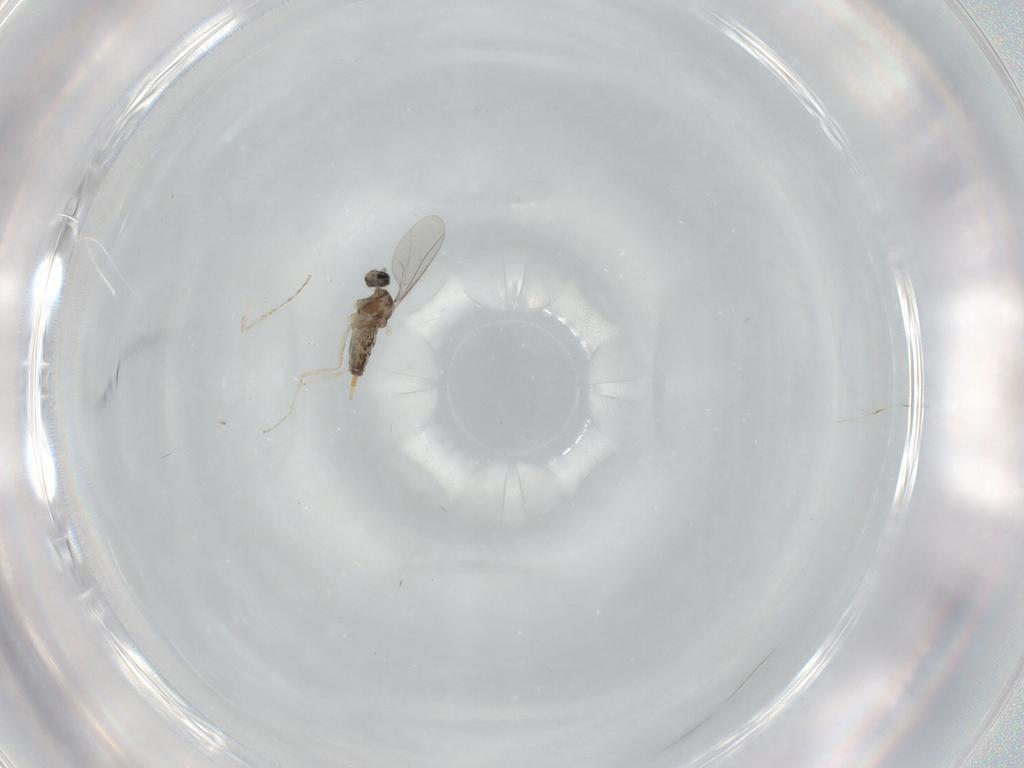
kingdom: Animalia
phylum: Arthropoda
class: Insecta
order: Diptera
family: Cecidomyiidae
